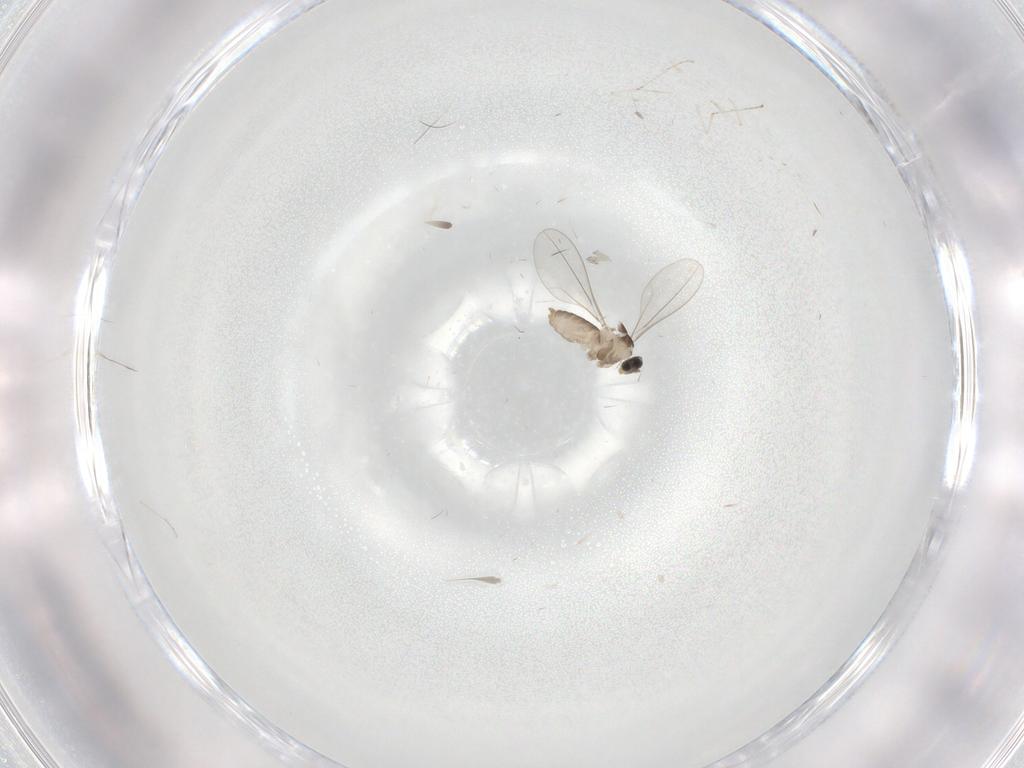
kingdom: Animalia
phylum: Arthropoda
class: Insecta
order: Diptera
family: Cecidomyiidae
